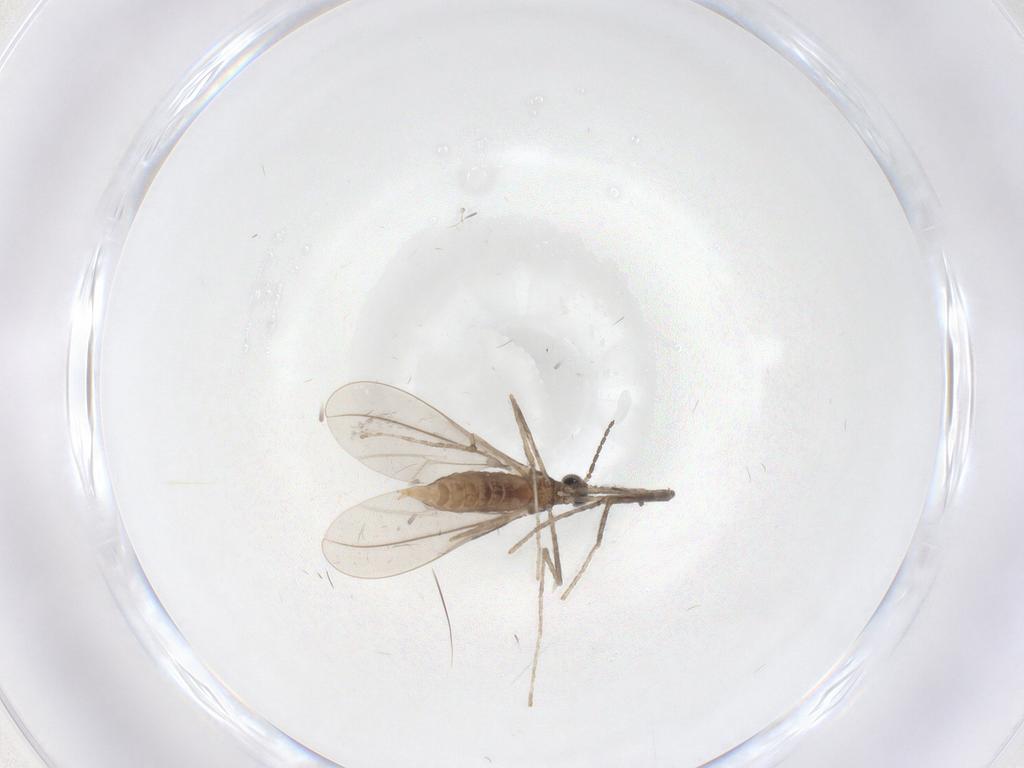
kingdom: Animalia
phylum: Arthropoda
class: Insecta
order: Diptera
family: Cecidomyiidae
